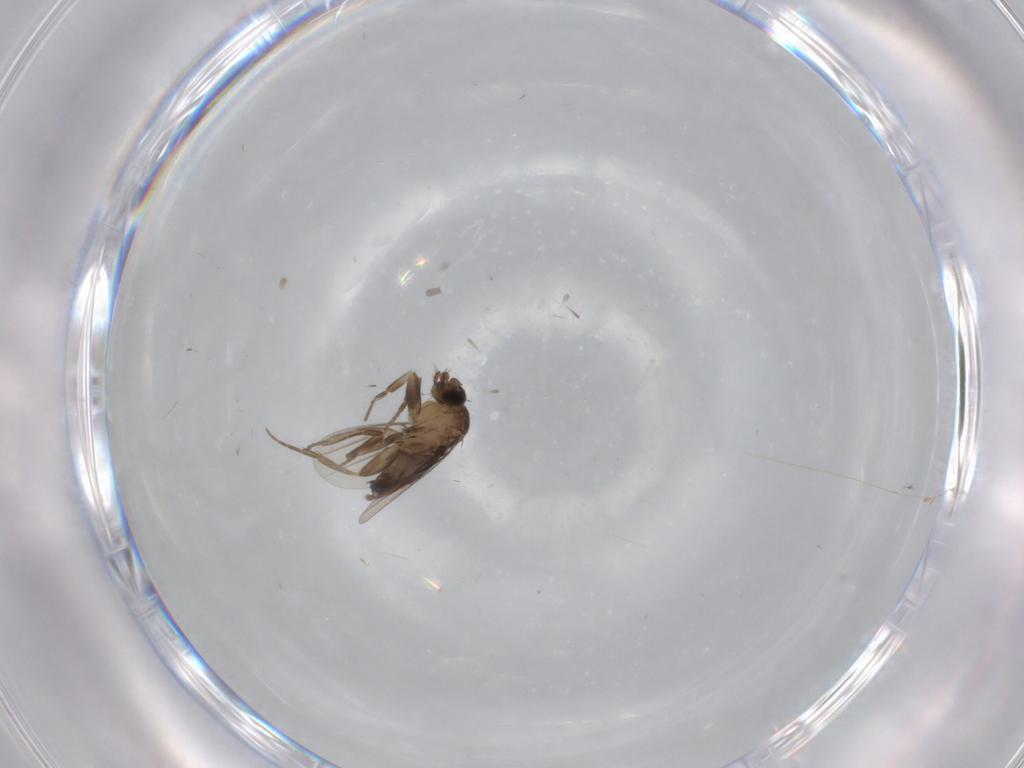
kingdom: Animalia
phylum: Arthropoda
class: Insecta
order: Diptera
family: Phoridae
